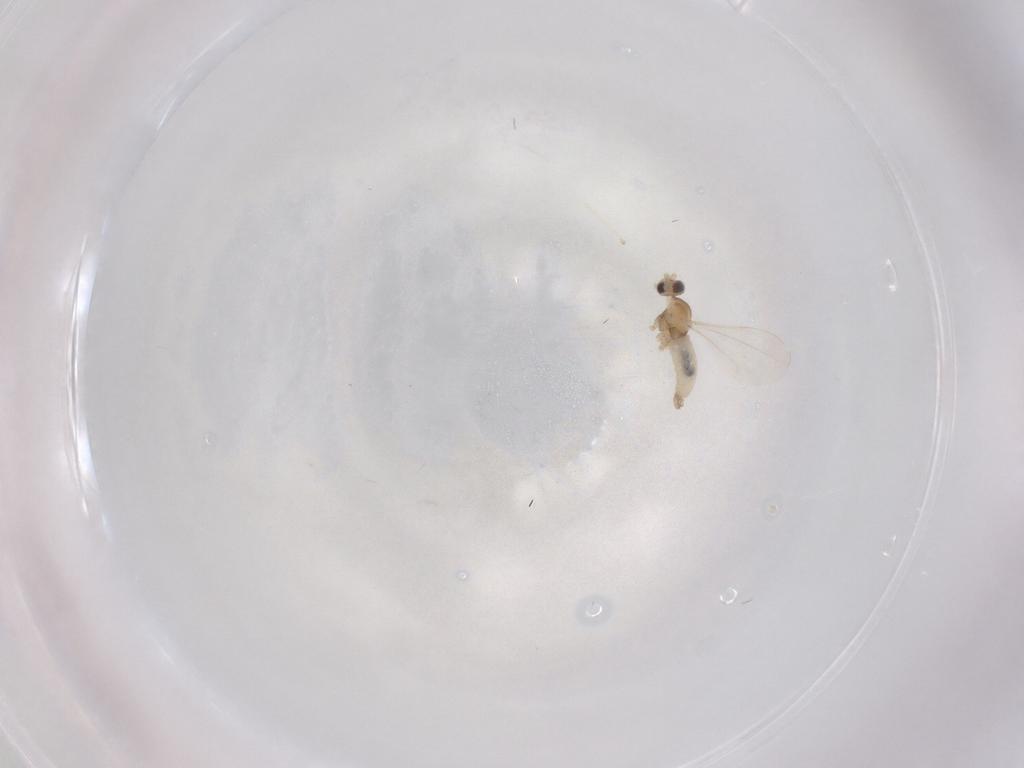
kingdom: Animalia
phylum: Arthropoda
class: Insecta
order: Diptera
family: Cecidomyiidae
